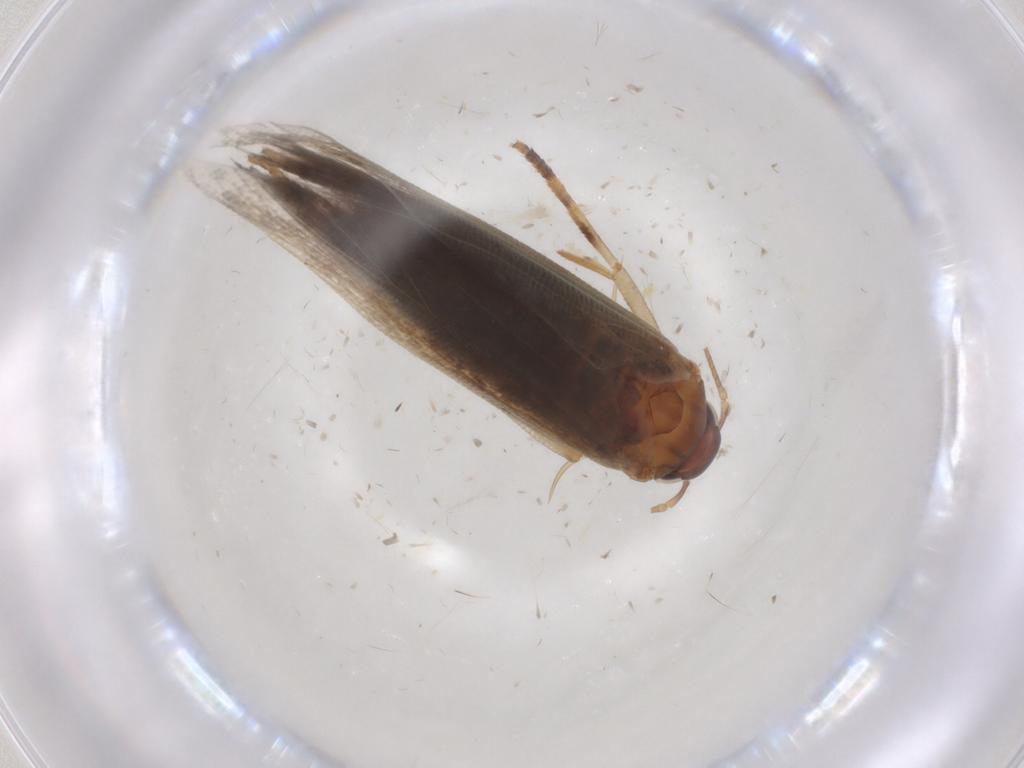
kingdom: Animalia
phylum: Arthropoda
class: Insecta
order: Lepidoptera
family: Gelechiidae
